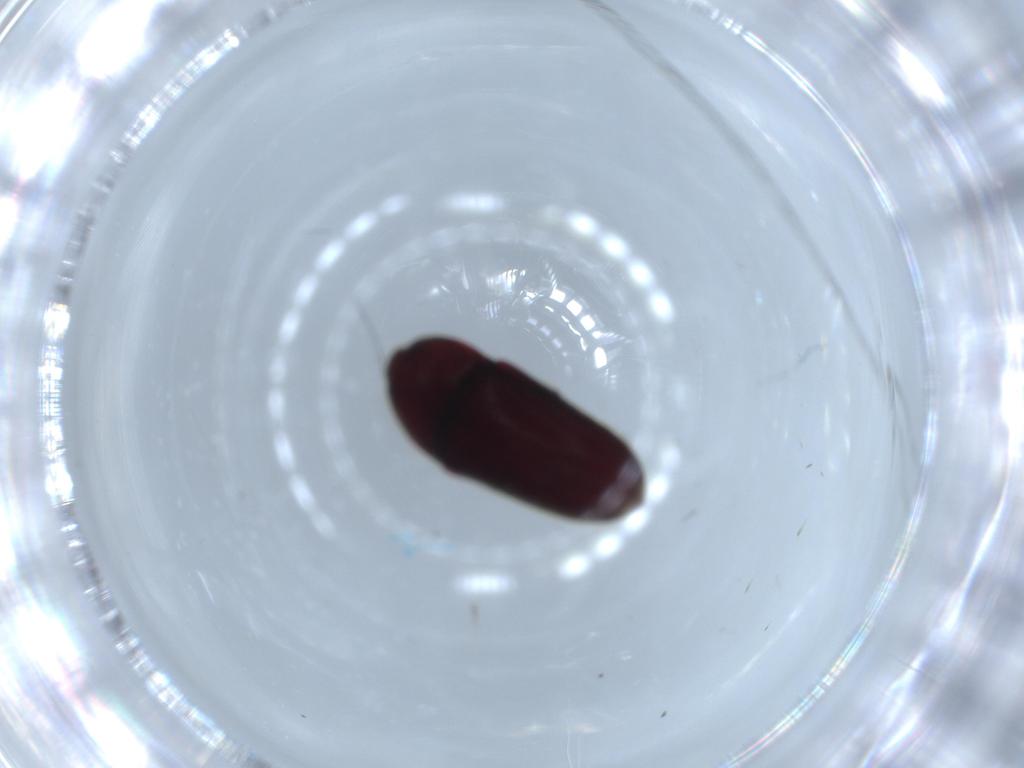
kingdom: Animalia
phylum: Arthropoda
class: Insecta
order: Coleoptera
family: Throscidae
